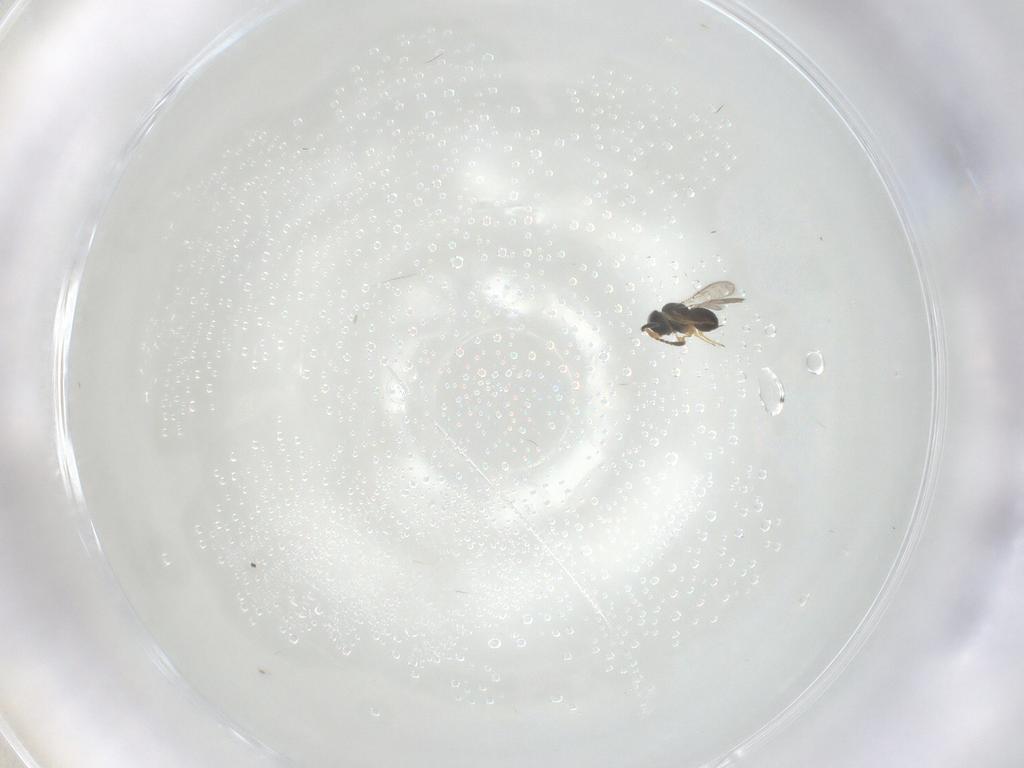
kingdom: Animalia
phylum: Arthropoda
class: Insecta
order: Hymenoptera
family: Scelionidae
